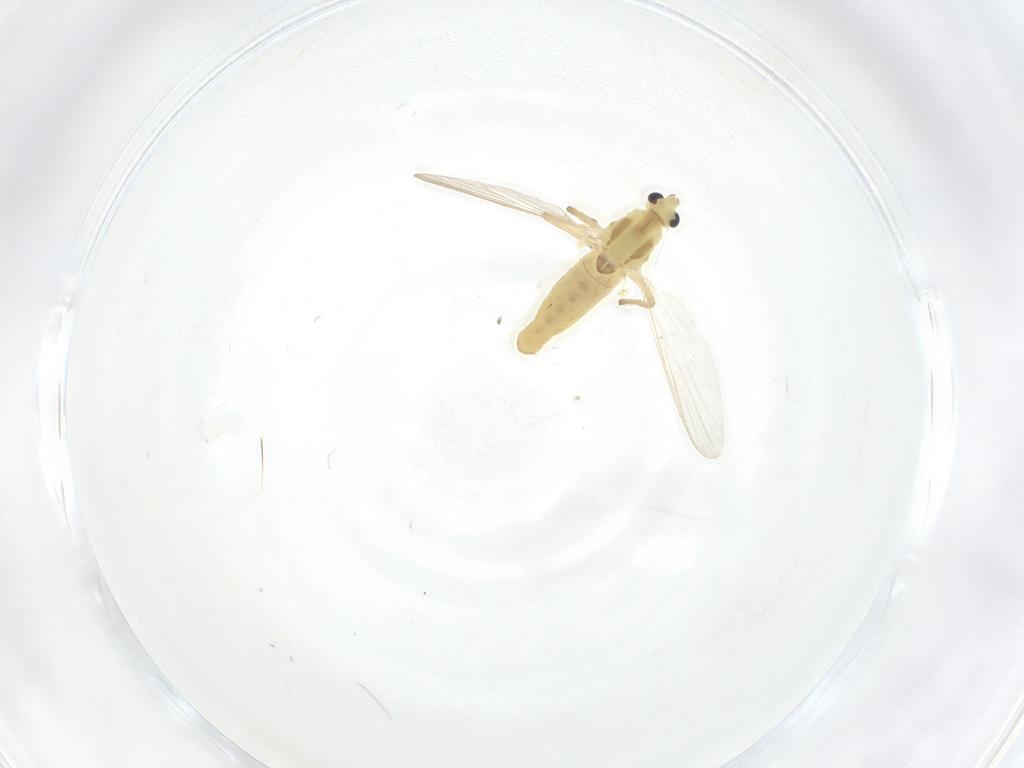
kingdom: Animalia
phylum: Arthropoda
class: Insecta
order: Diptera
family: Chironomidae
